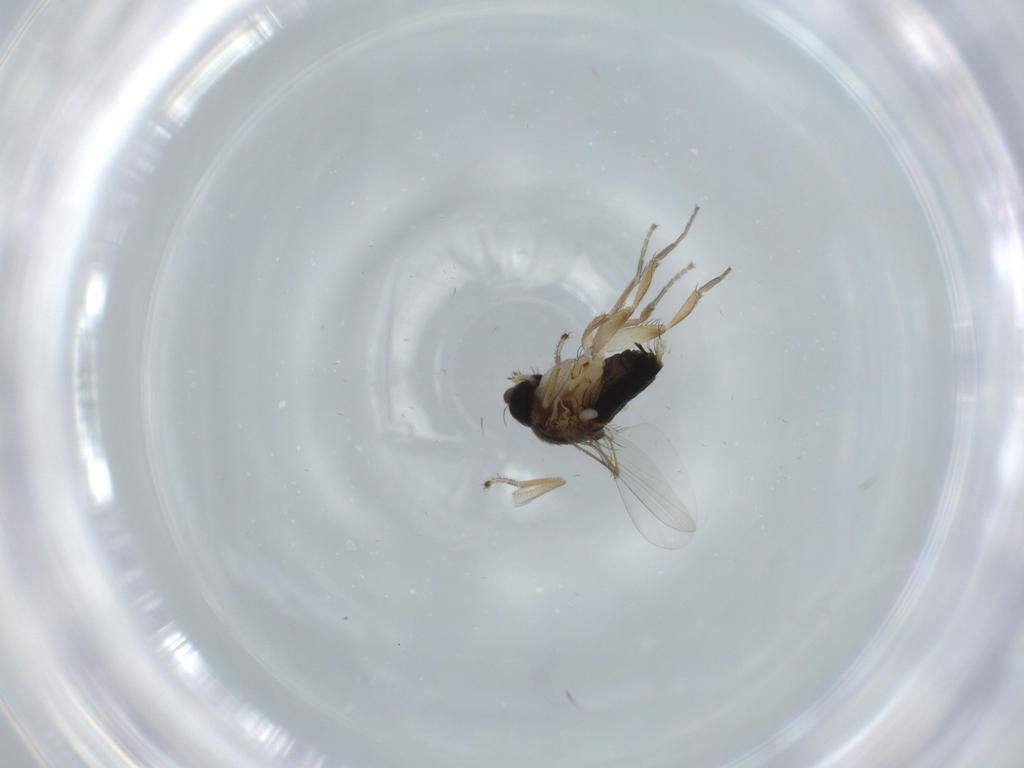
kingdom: Animalia
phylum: Arthropoda
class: Insecta
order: Diptera
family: Phoridae
